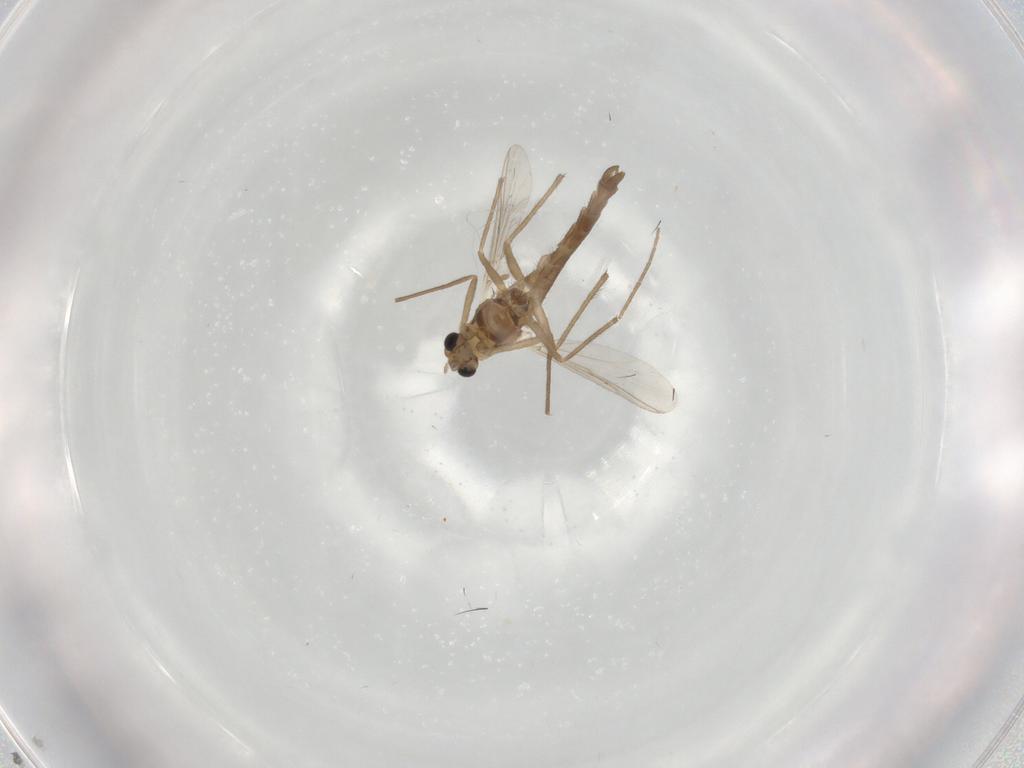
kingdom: Animalia
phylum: Arthropoda
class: Insecta
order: Diptera
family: Chironomidae
